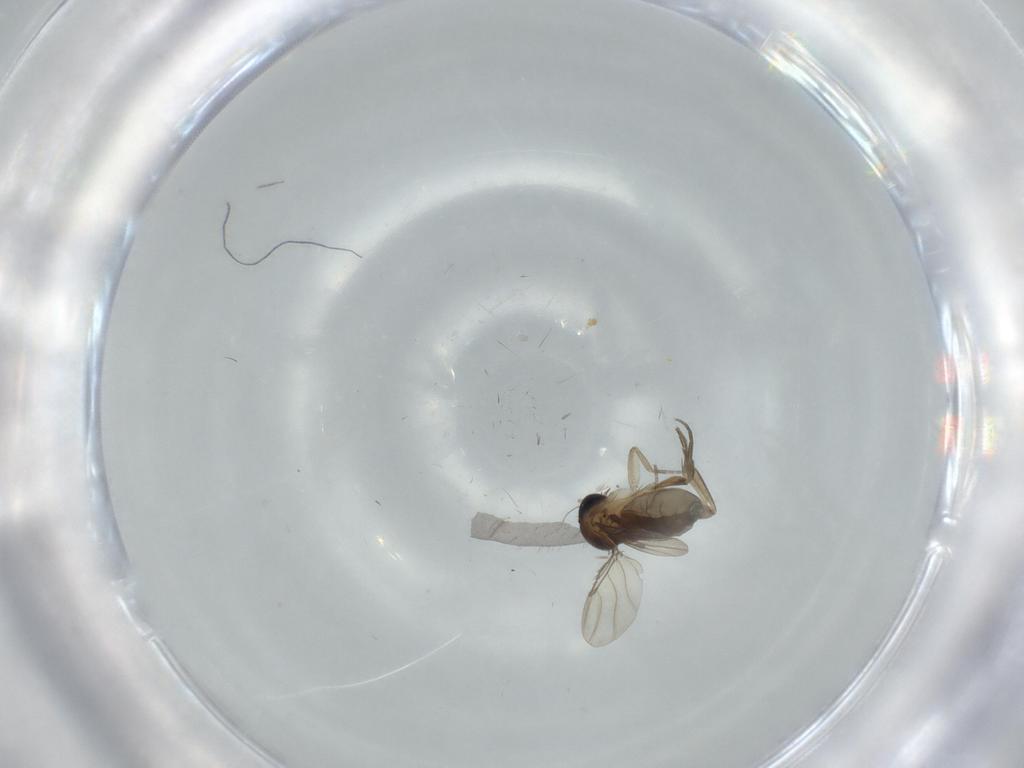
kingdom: Animalia
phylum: Arthropoda
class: Insecta
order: Diptera
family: Phoridae
